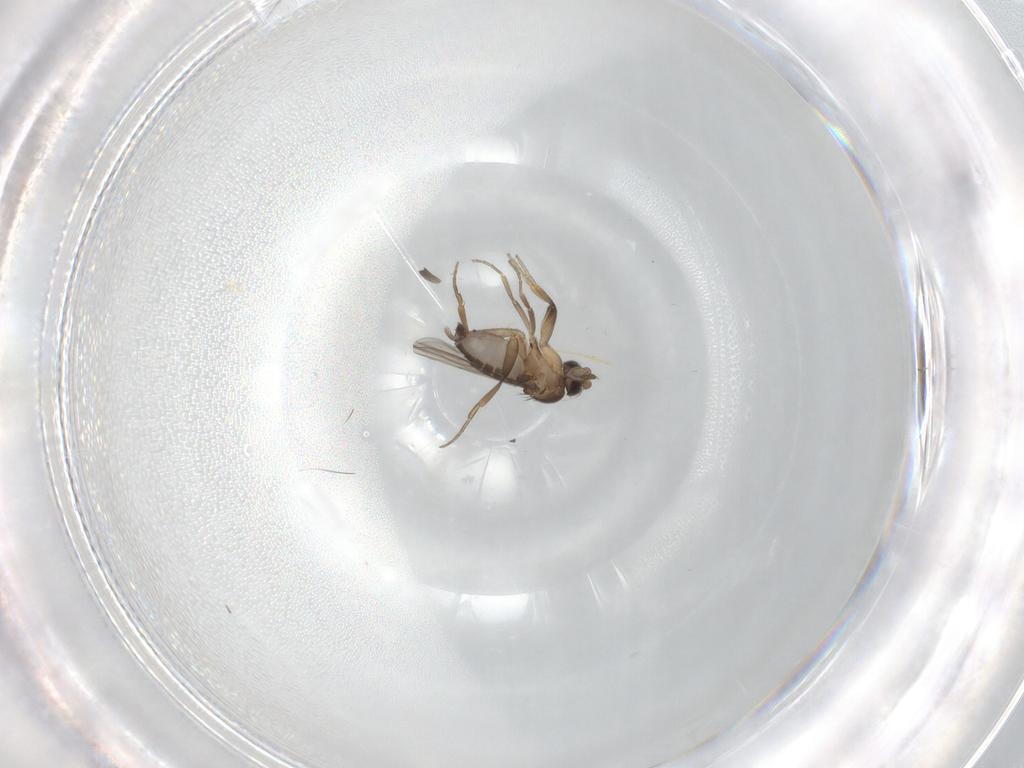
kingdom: Animalia
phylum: Arthropoda
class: Insecta
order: Diptera
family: Phoridae
